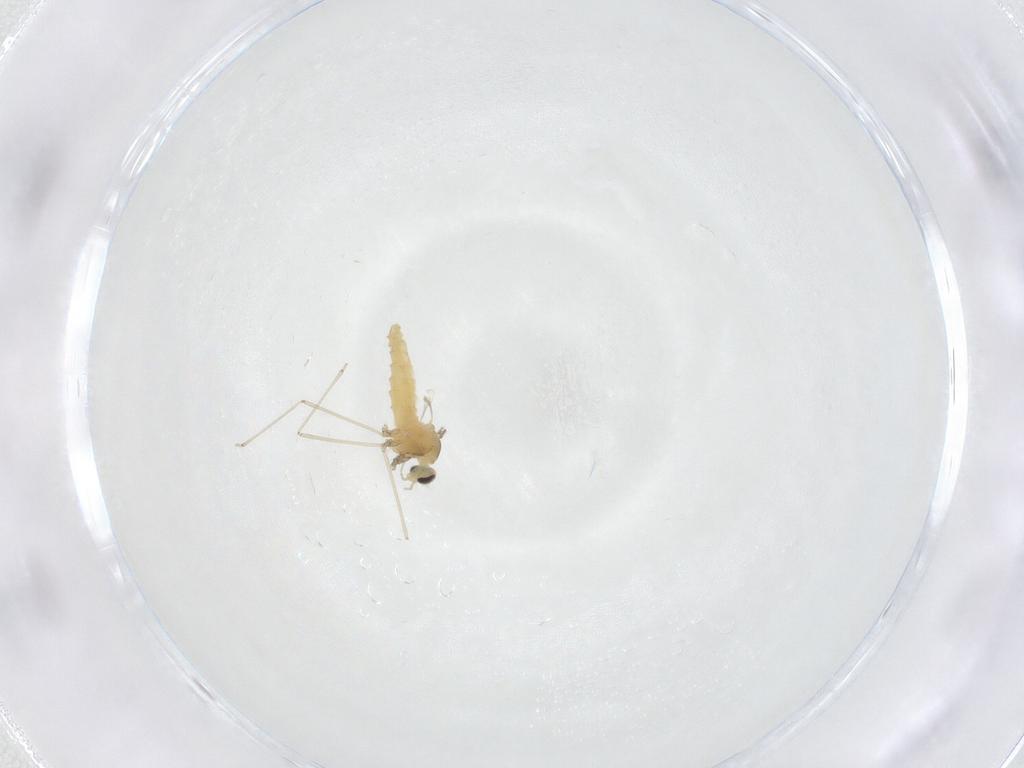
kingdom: Animalia
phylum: Arthropoda
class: Insecta
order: Diptera
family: Cecidomyiidae
